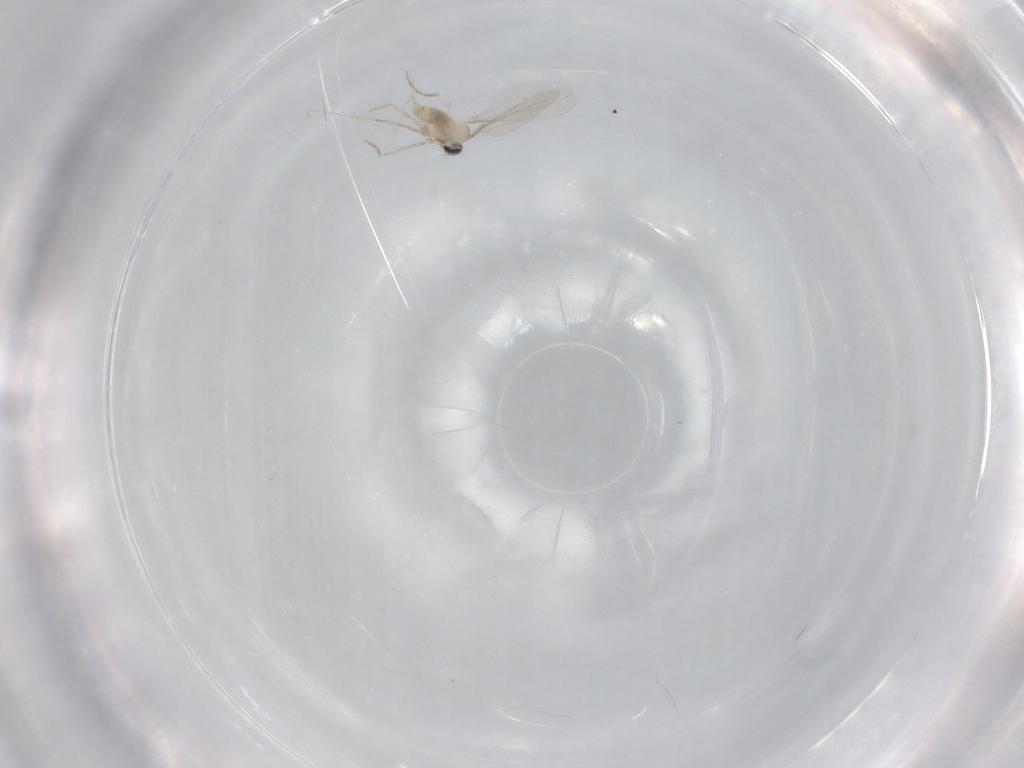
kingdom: Animalia
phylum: Arthropoda
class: Insecta
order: Diptera
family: Cecidomyiidae
